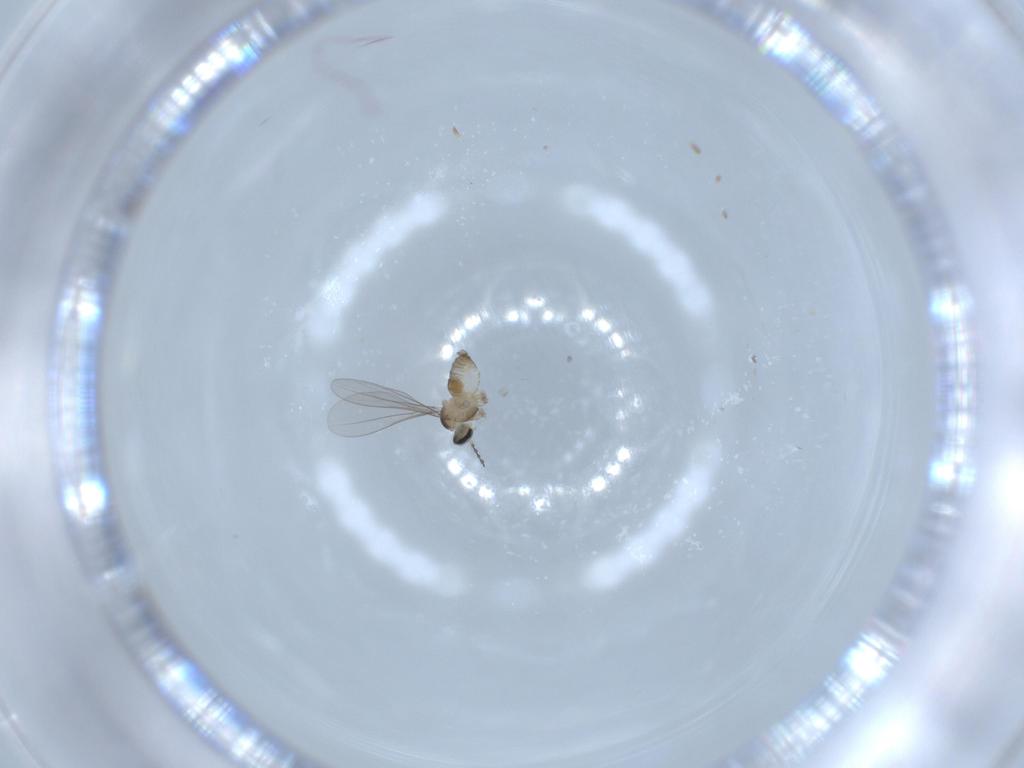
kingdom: Animalia
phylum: Arthropoda
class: Insecta
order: Diptera
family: Cecidomyiidae
